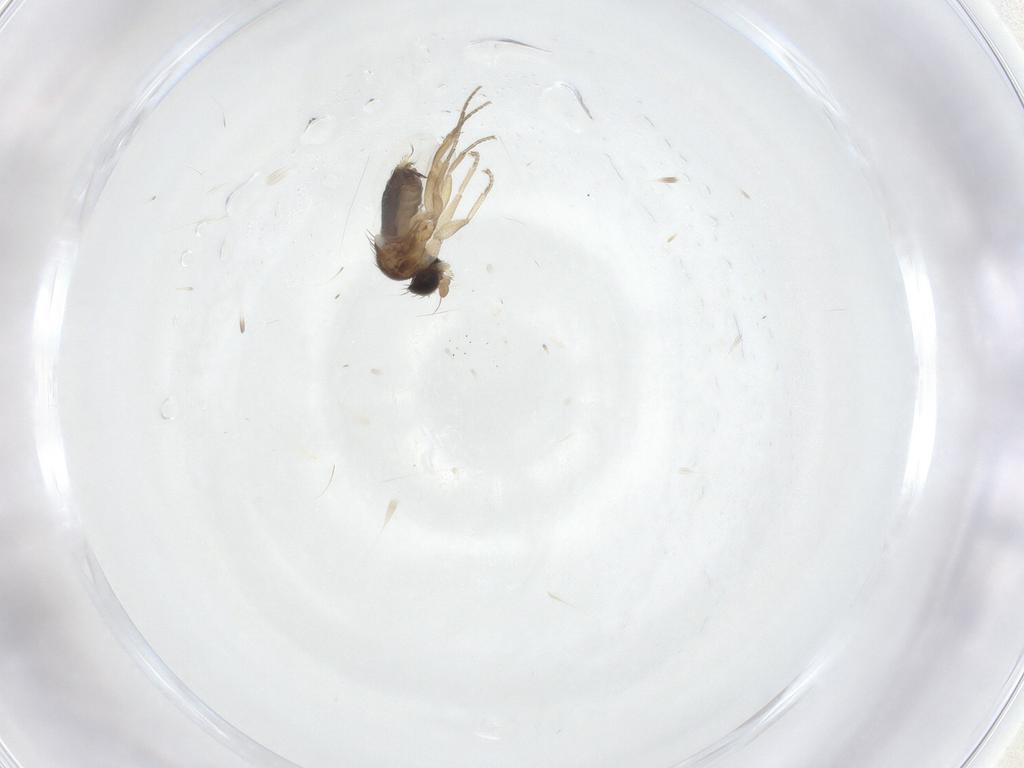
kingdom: Animalia
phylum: Arthropoda
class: Insecta
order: Diptera
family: Phoridae
